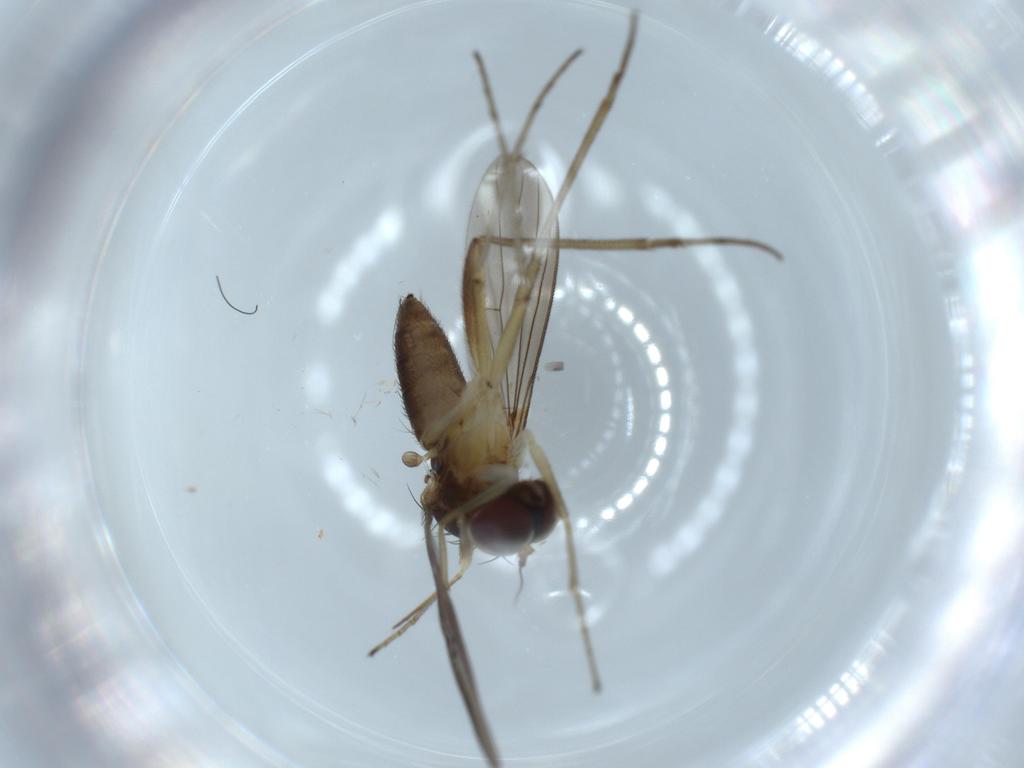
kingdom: Animalia
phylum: Arthropoda
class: Insecta
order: Diptera
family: Dolichopodidae
